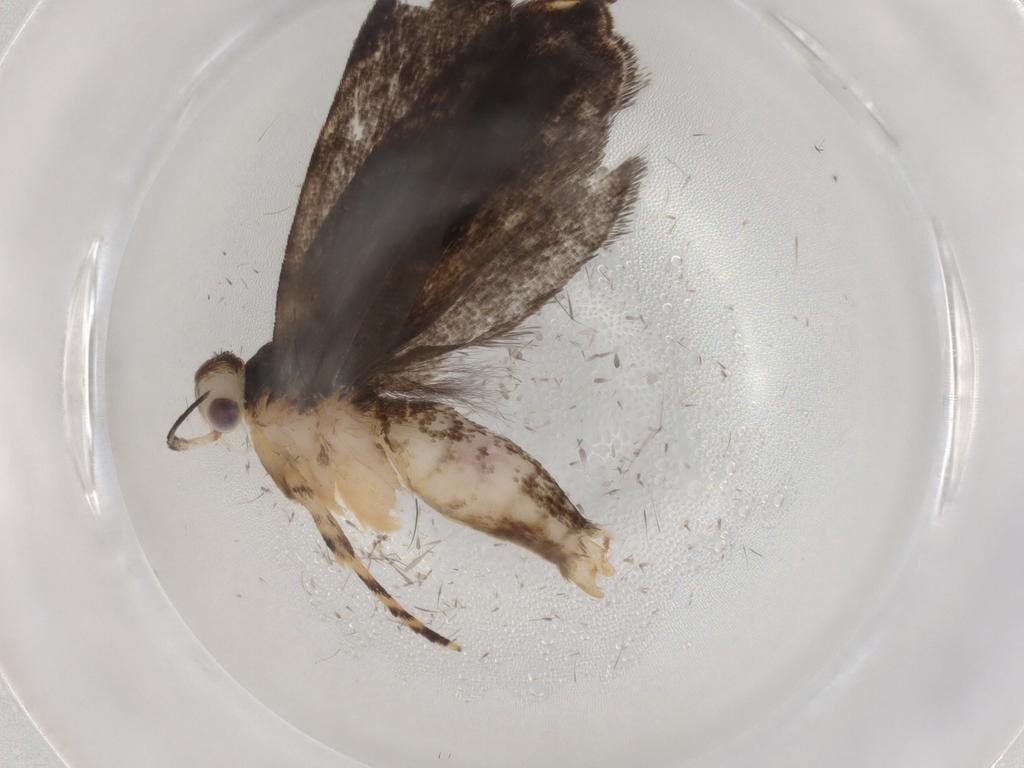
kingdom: Animalia
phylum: Arthropoda
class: Insecta
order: Lepidoptera
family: Gelechiidae
